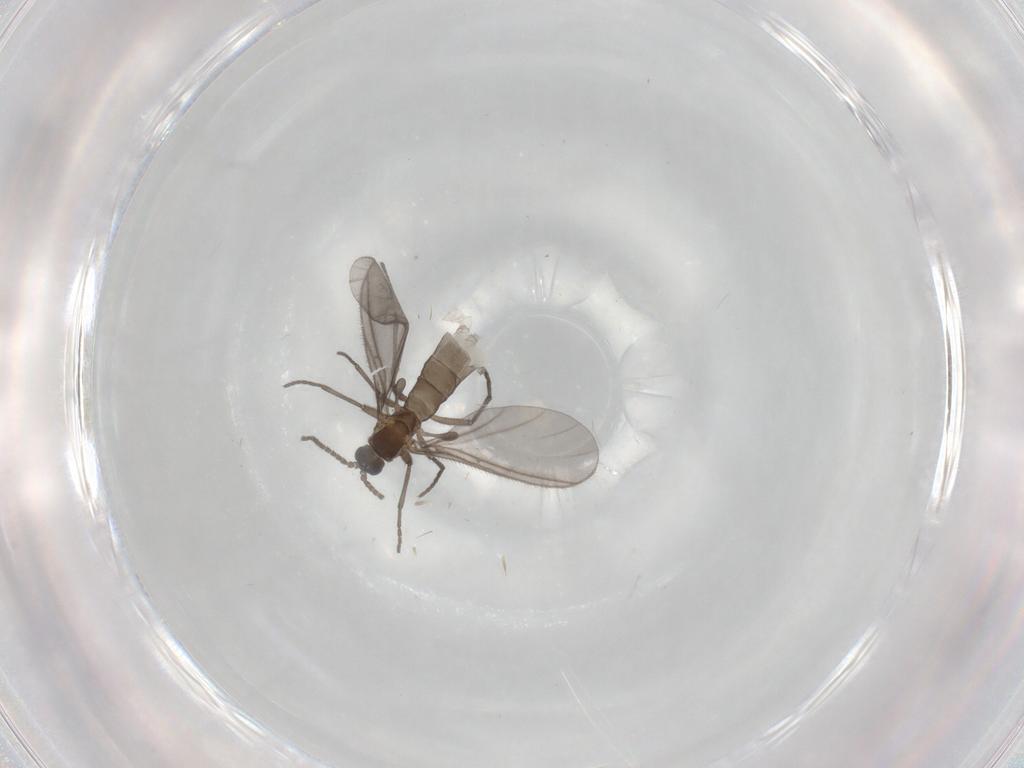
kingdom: Animalia
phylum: Arthropoda
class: Insecta
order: Diptera
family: Sciaridae
